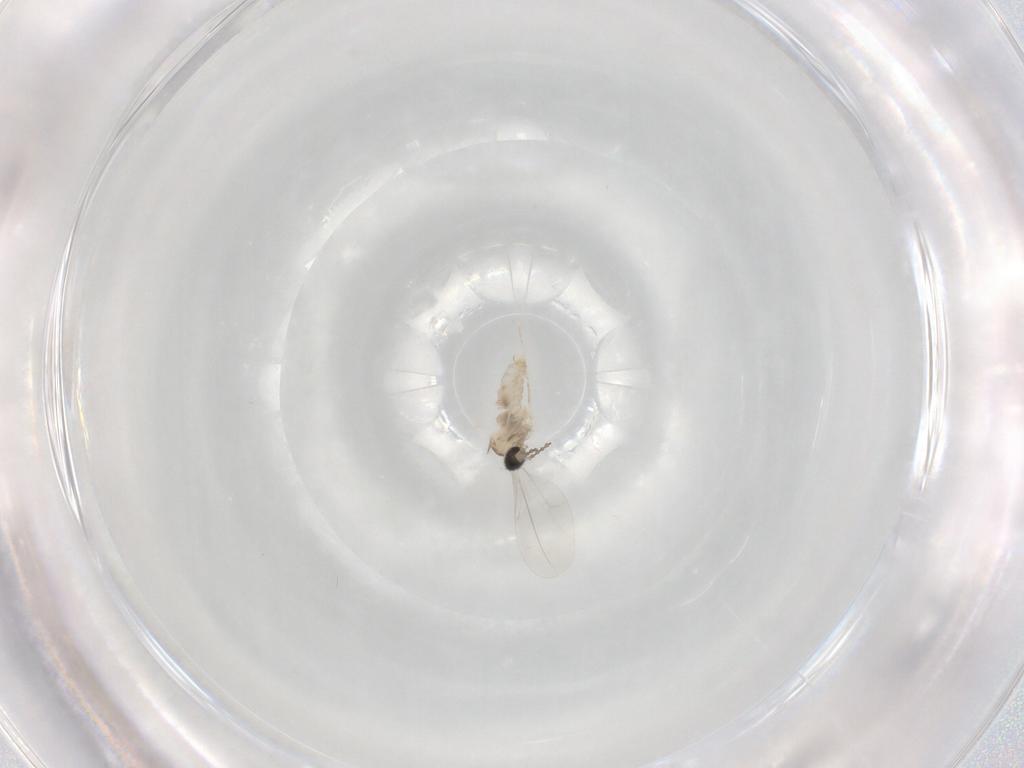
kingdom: Animalia
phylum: Arthropoda
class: Insecta
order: Diptera
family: Cecidomyiidae
